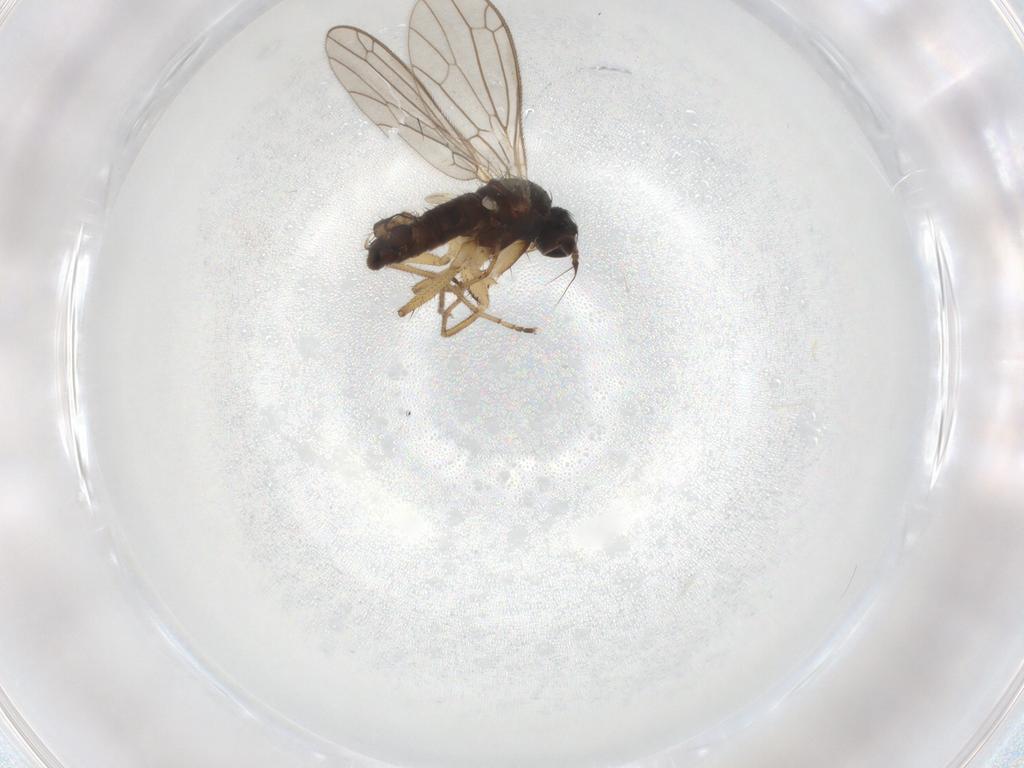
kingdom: Animalia
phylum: Arthropoda
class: Insecta
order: Diptera
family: Empididae
